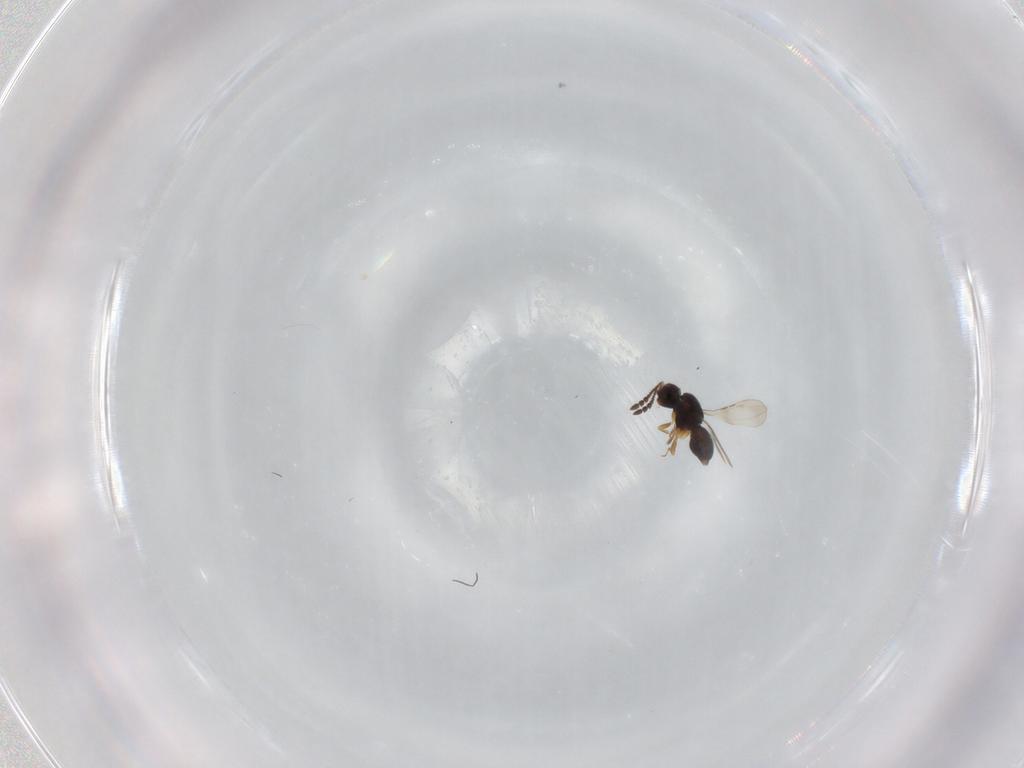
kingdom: Animalia
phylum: Arthropoda
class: Insecta
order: Hymenoptera
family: Ceraphronidae
